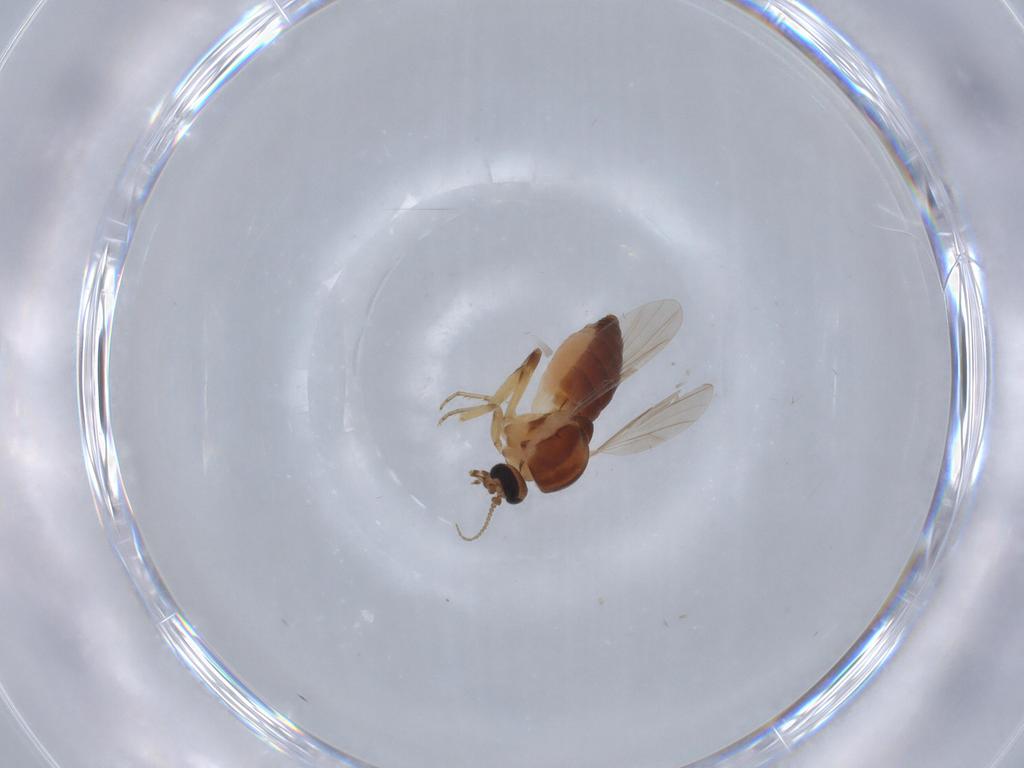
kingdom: Animalia
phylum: Arthropoda
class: Insecta
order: Diptera
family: Ceratopogonidae
